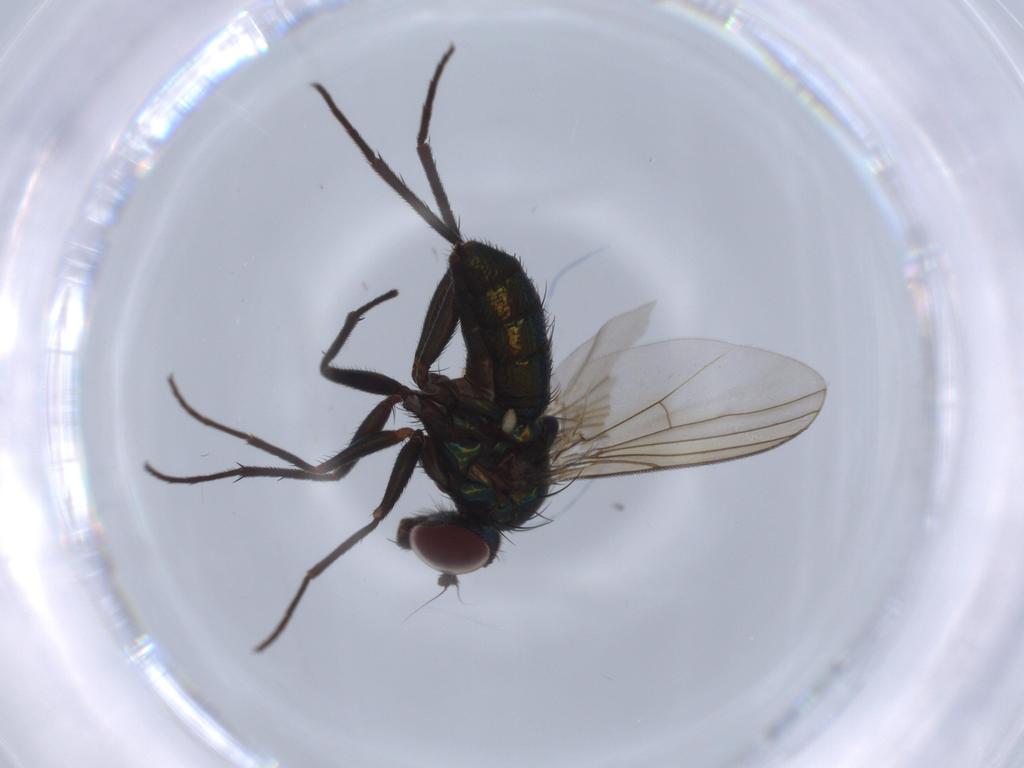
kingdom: Animalia
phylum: Arthropoda
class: Insecta
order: Diptera
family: Dolichopodidae
